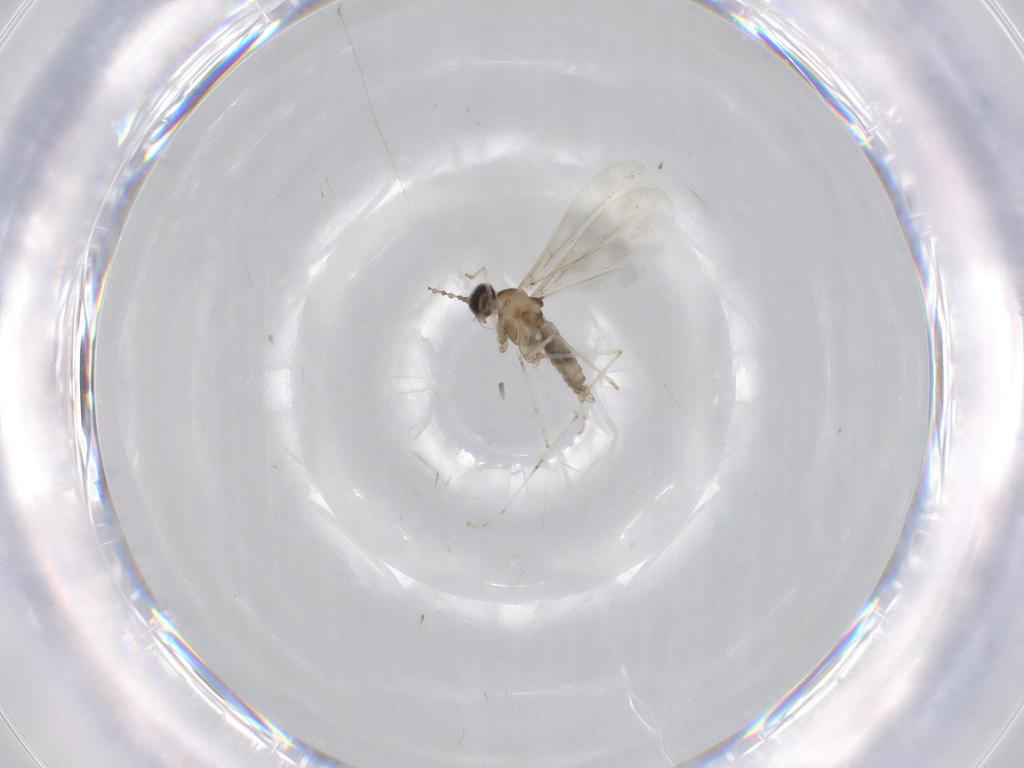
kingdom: Animalia
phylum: Arthropoda
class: Insecta
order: Diptera
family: Cecidomyiidae
